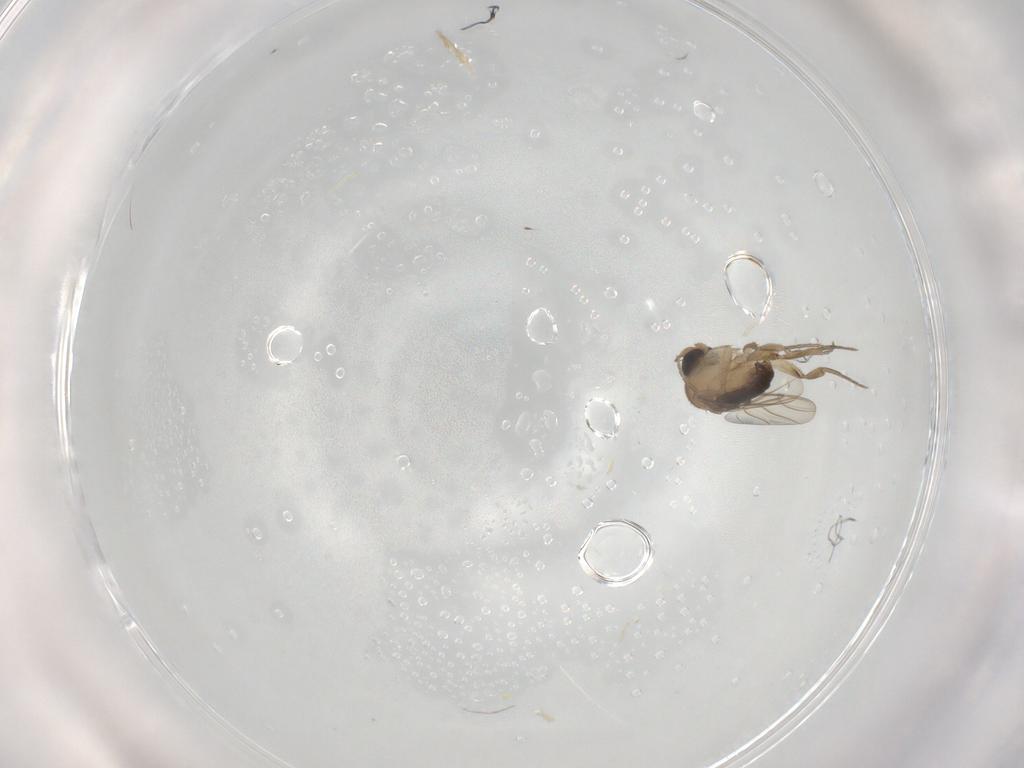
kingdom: Animalia
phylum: Arthropoda
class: Insecta
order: Diptera
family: Phoridae
